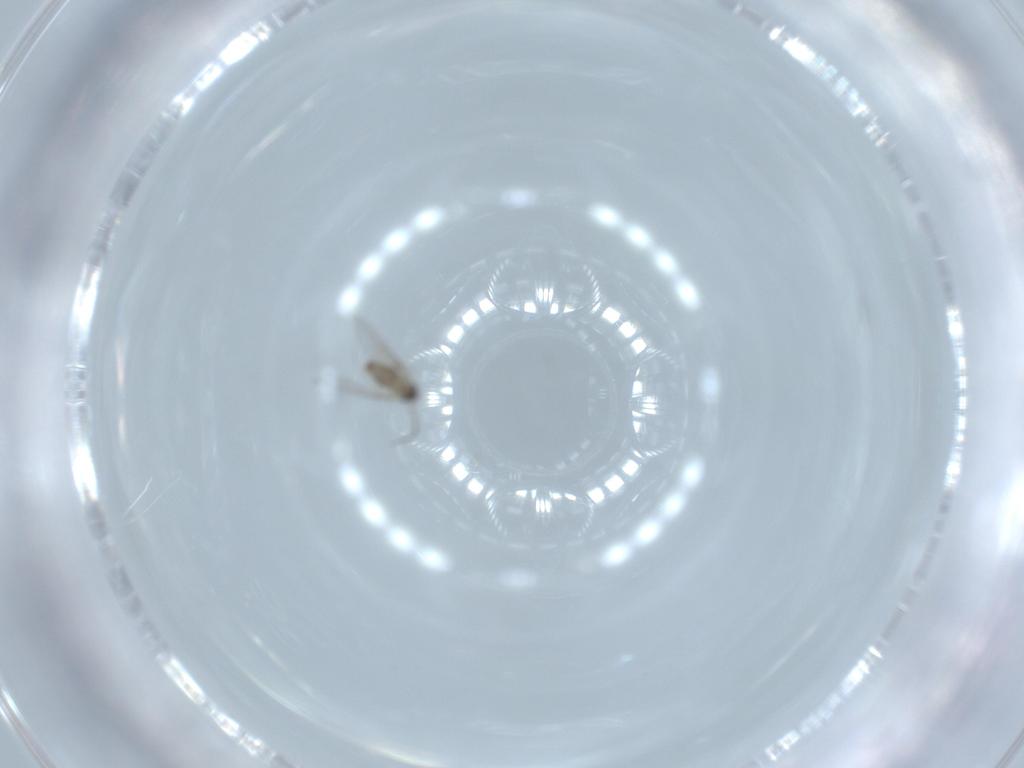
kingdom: Animalia
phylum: Arthropoda
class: Insecta
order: Diptera
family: Cecidomyiidae
